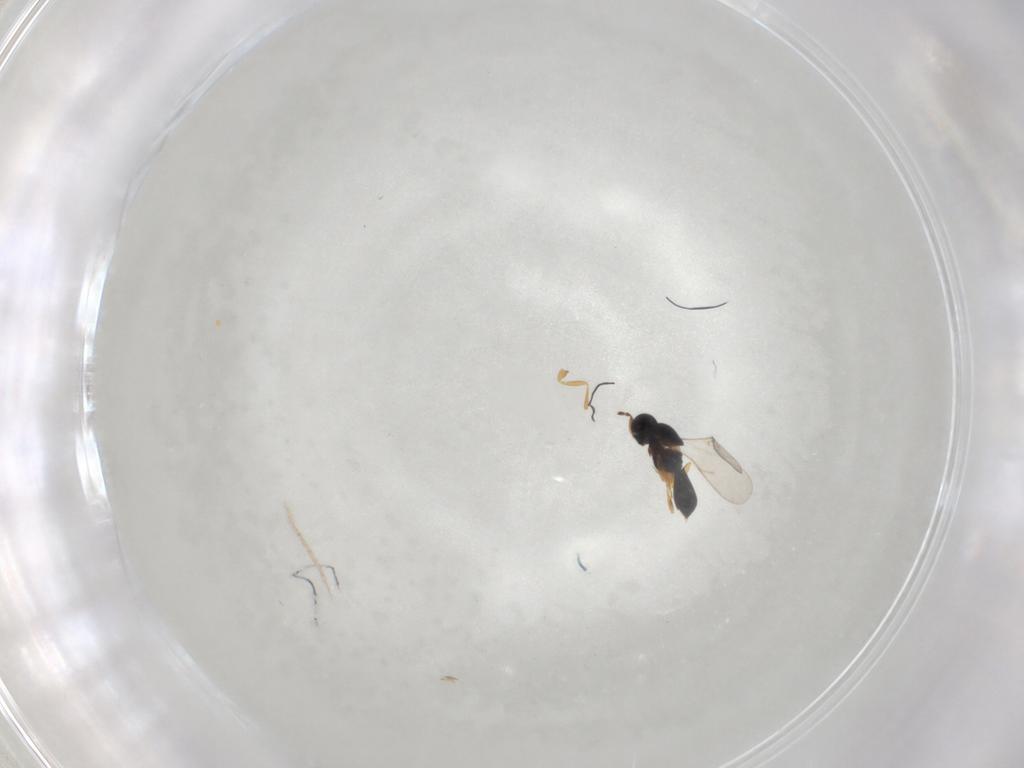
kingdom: Animalia
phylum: Arthropoda
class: Insecta
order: Hymenoptera
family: Scelionidae
